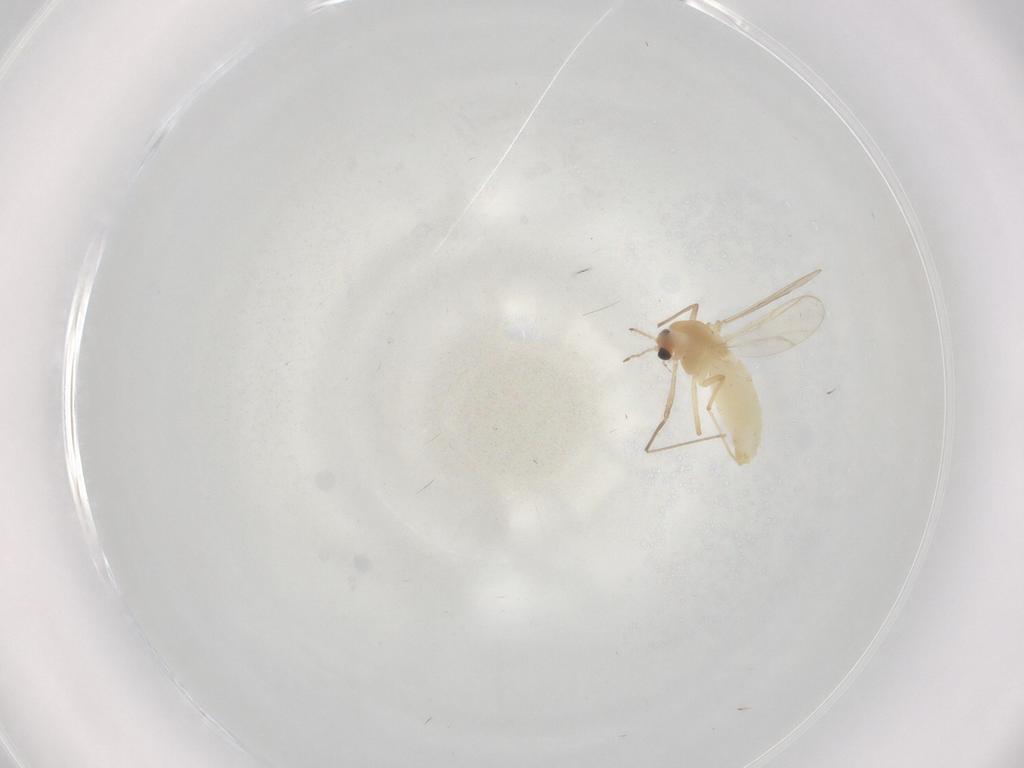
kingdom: Animalia
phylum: Arthropoda
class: Insecta
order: Diptera
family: Chironomidae
